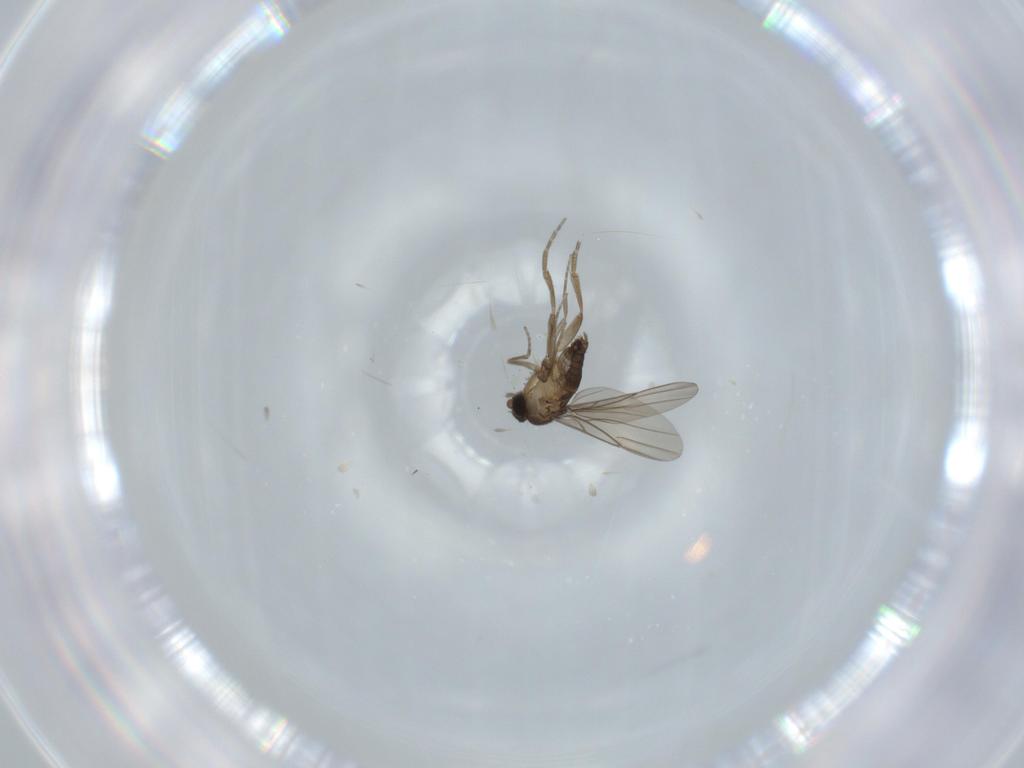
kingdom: Animalia
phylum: Arthropoda
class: Insecta
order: Diptera
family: Phoridae
